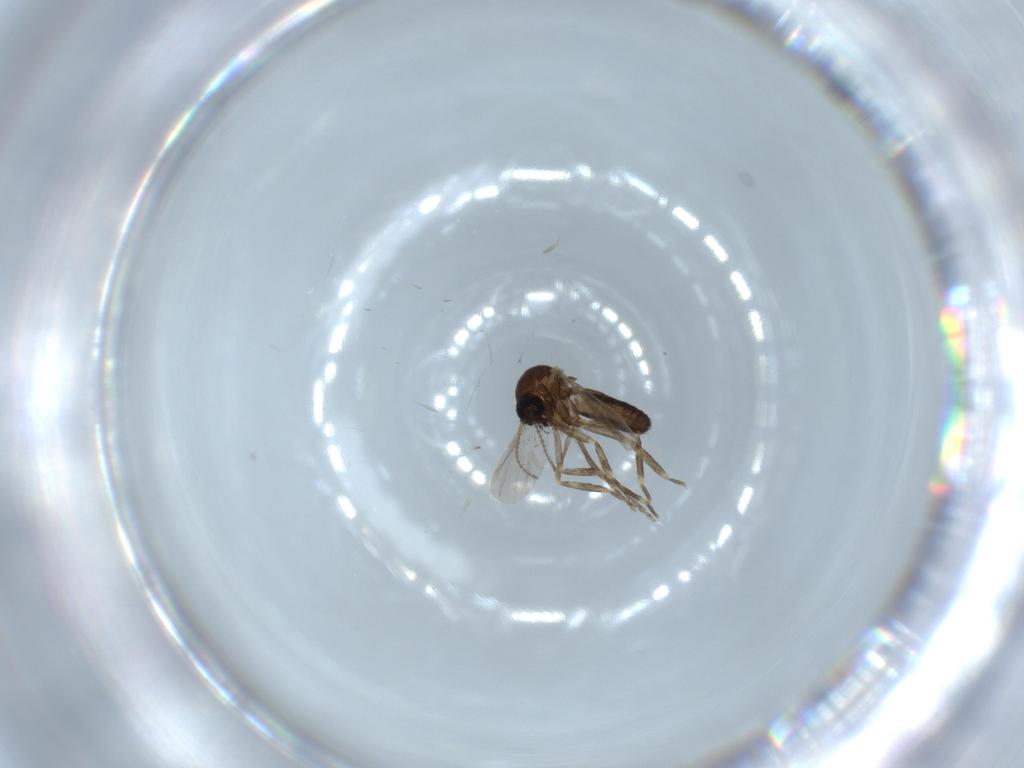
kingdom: Animalia
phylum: Arthropoda
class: Insecta
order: Diptera
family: Ceratopogonidae
